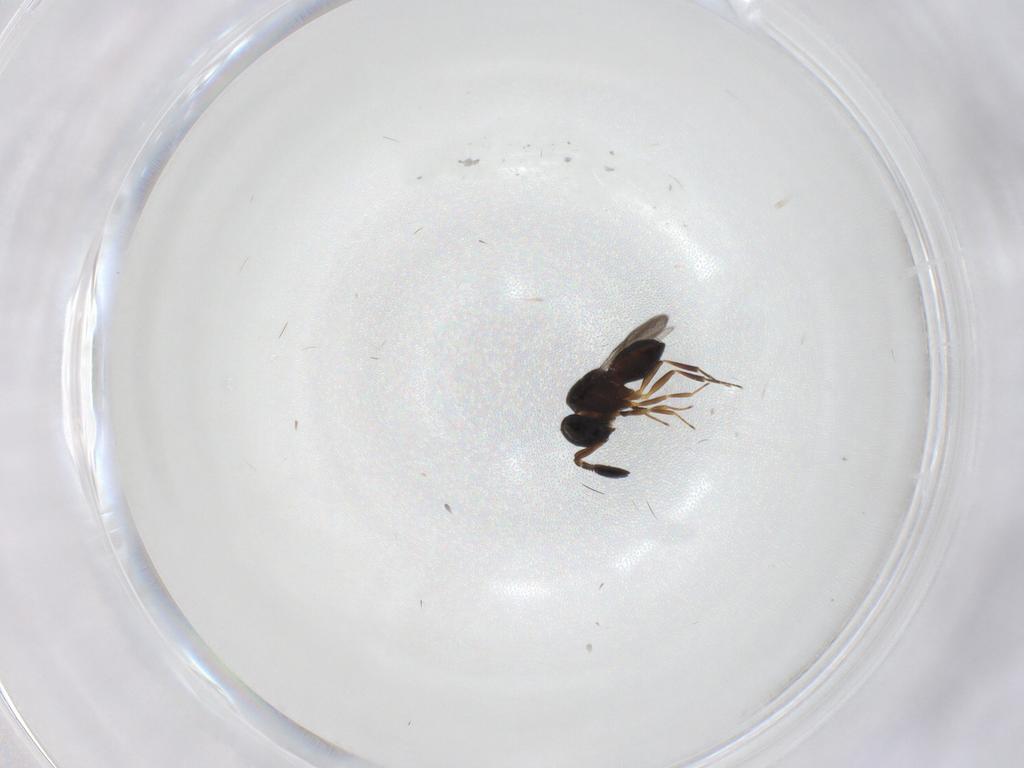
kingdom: Animalia
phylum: Arthropoda
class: Insecta
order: Hymenoptera
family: Scelionidae
